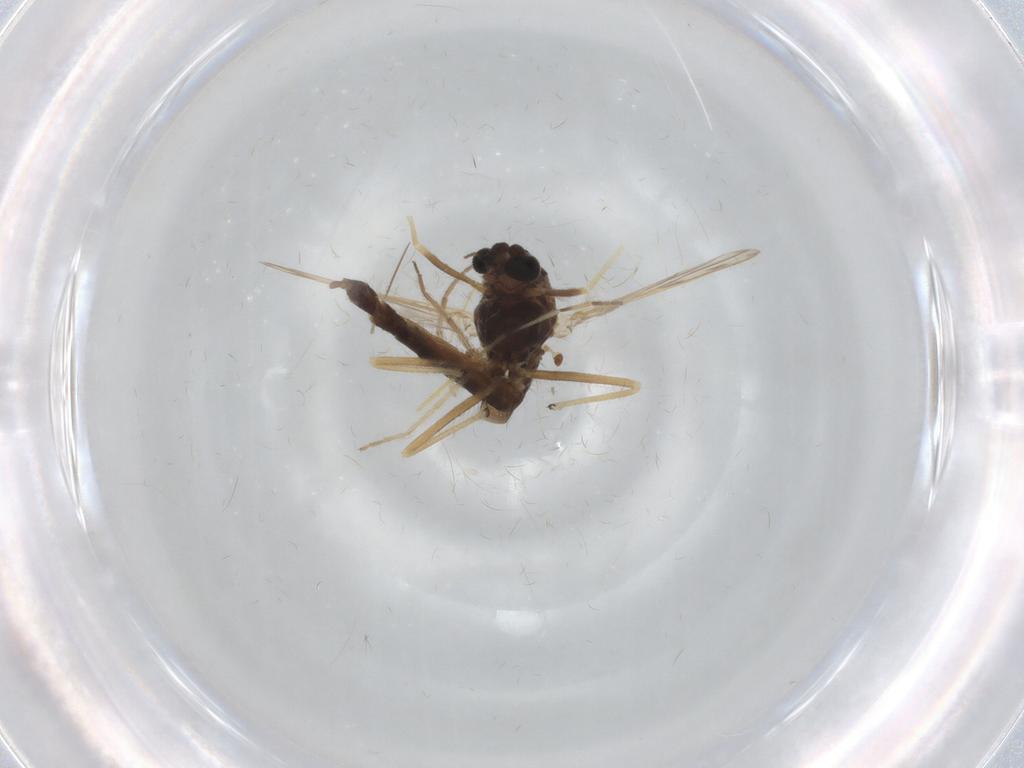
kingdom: Animalia
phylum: Arthropoda
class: Insecta
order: Diptera
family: Chironomidae
